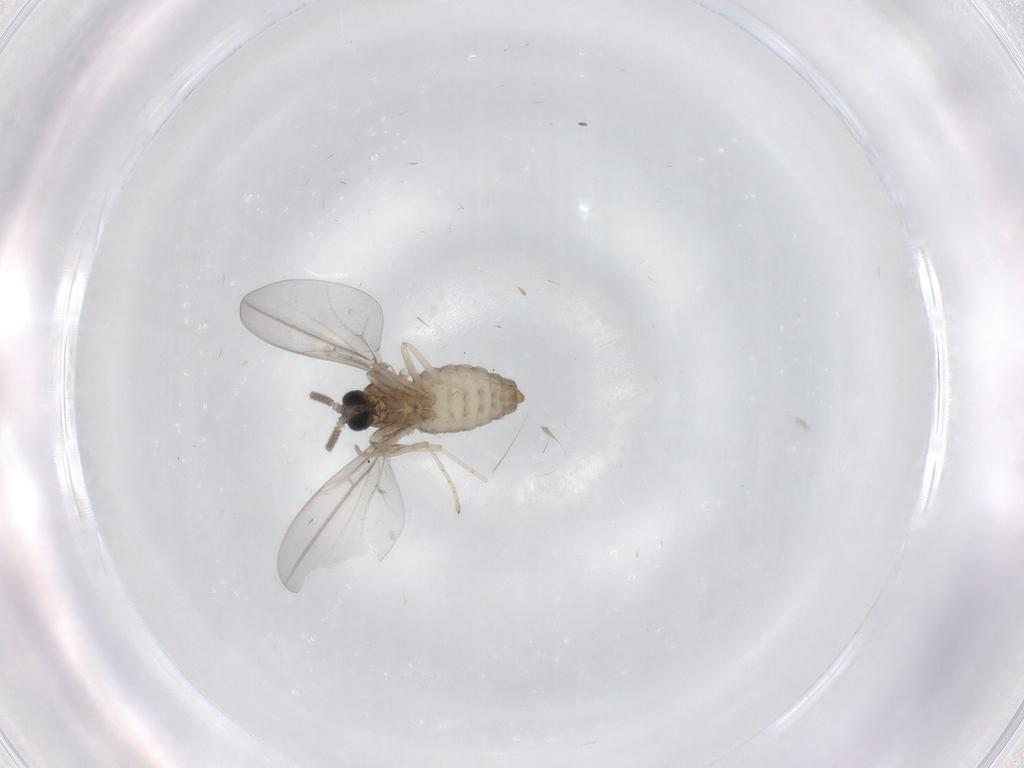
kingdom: Animalia
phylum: Arthropoda
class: Insecta
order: Diptera
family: Cecidomyiidae
